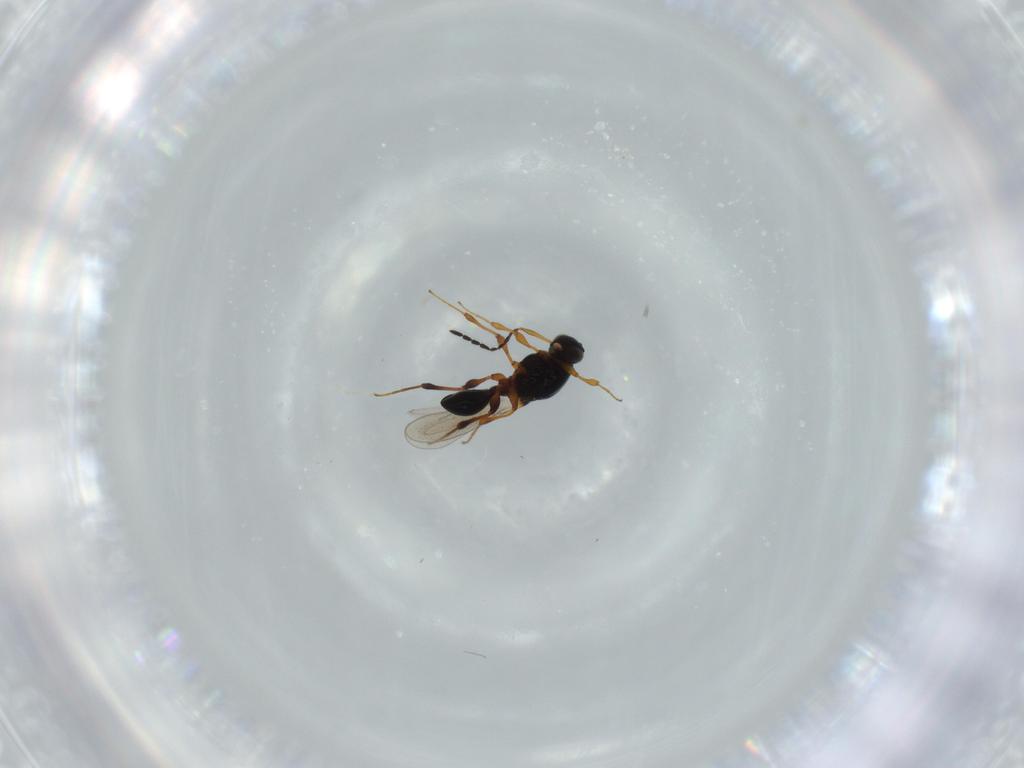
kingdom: Animalia
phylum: Arthropoda
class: Insecta
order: Hymenoptera
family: Platygastridae
